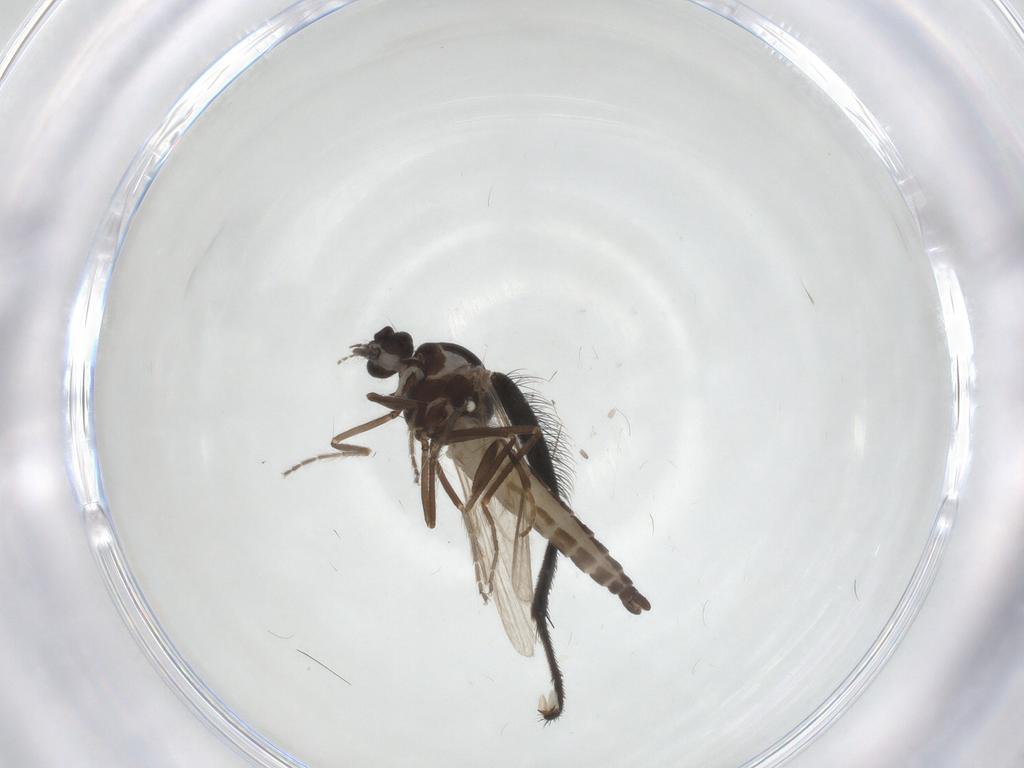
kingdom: Animalia
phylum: Arthropoda
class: Insecta
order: Diptera
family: Ceratopogonidae
